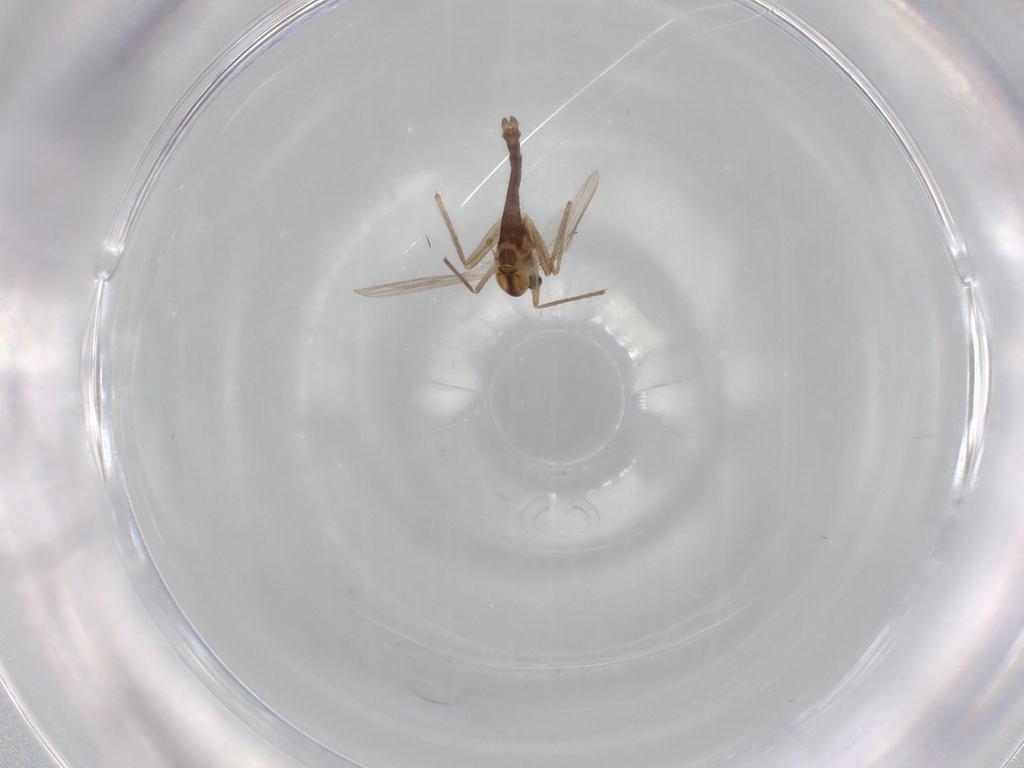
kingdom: Animalia
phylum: Arthropoda
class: Insecta
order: Diptera
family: Chironomidae
